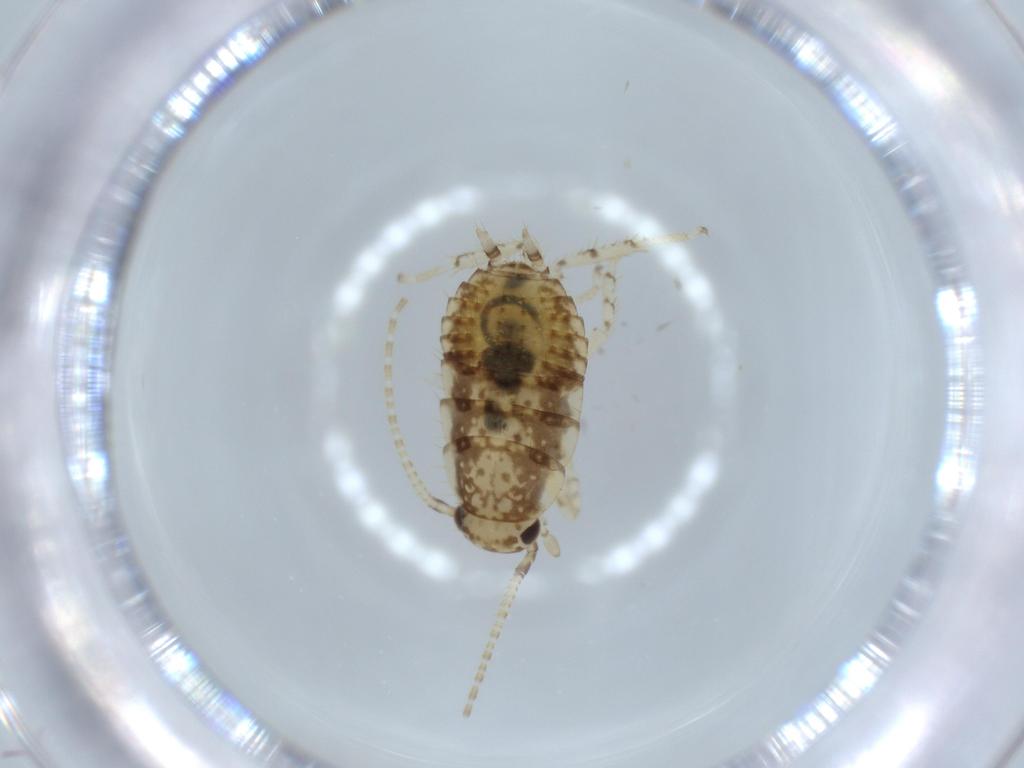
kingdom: Animalia
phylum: Arthropoda
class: Insecta
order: Blattodea
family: Ectobiidae
